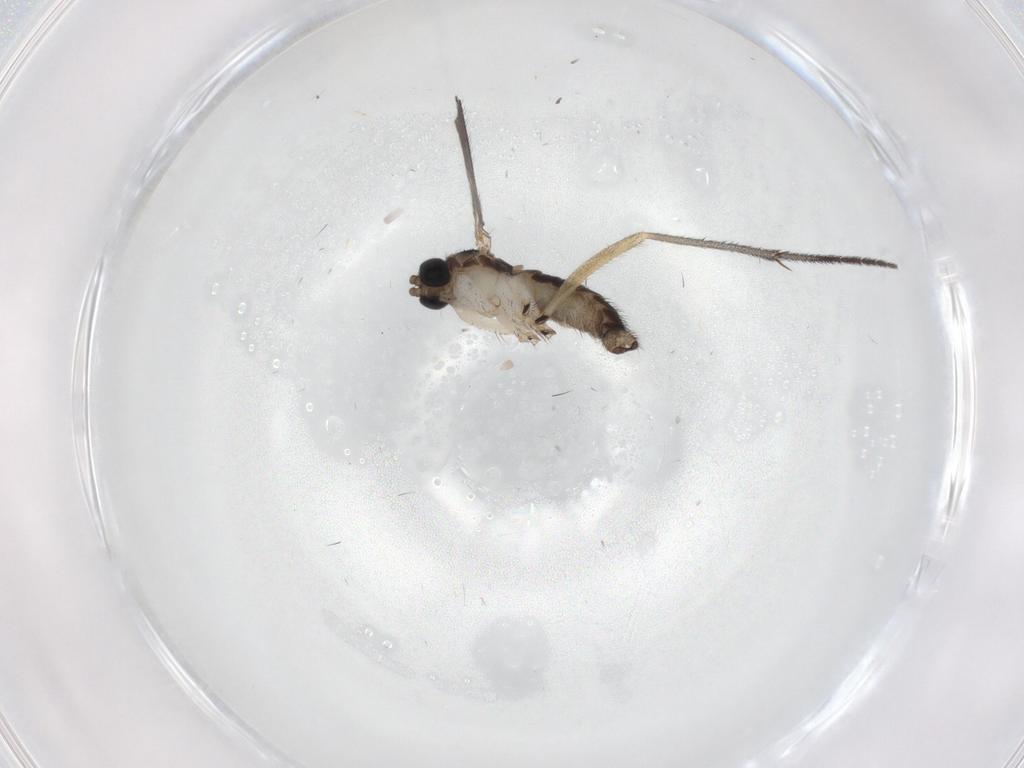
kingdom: Animalia
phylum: Arthropoda
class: Insecta
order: Diptera
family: Sciaridae
